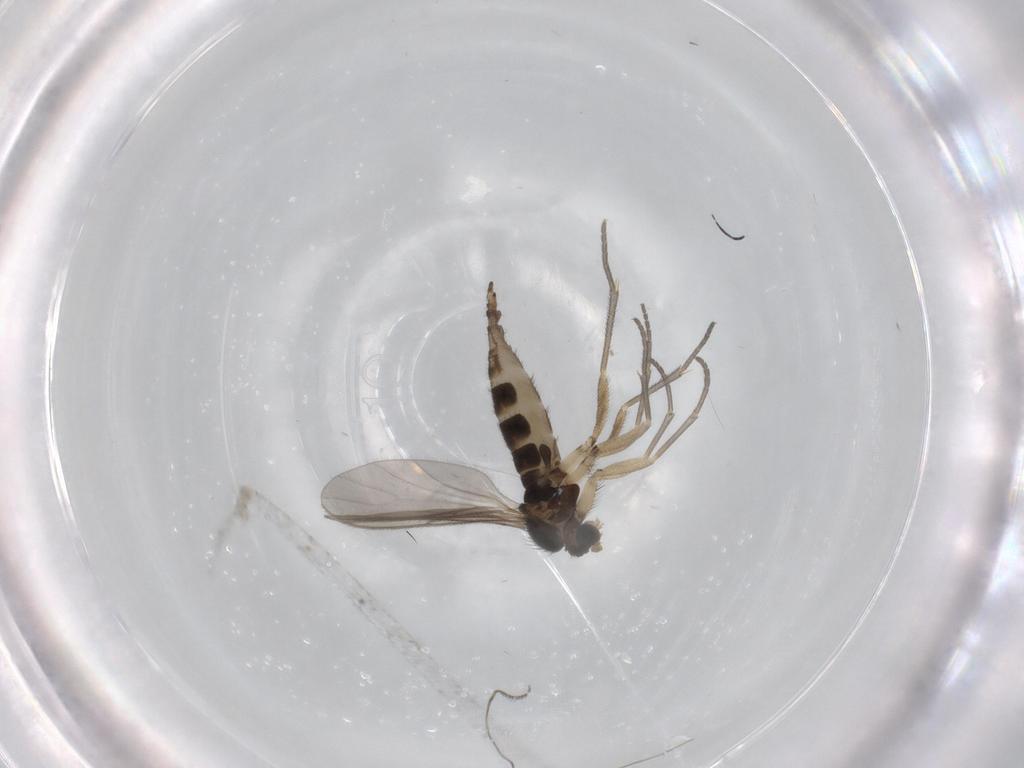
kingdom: Animalia
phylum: Arthropoda
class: Insecta
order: Diptera
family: Sciaridae
